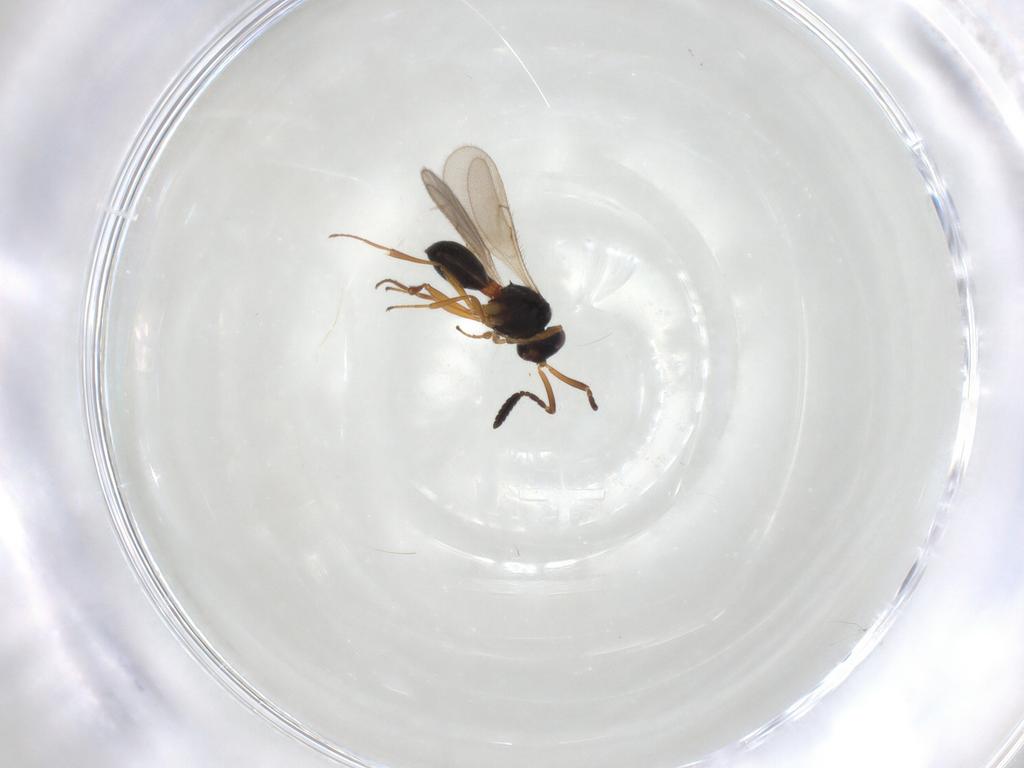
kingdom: Animalia
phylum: Arthropoda
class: Insecta
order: Hymenoptera
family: Scelionidae
